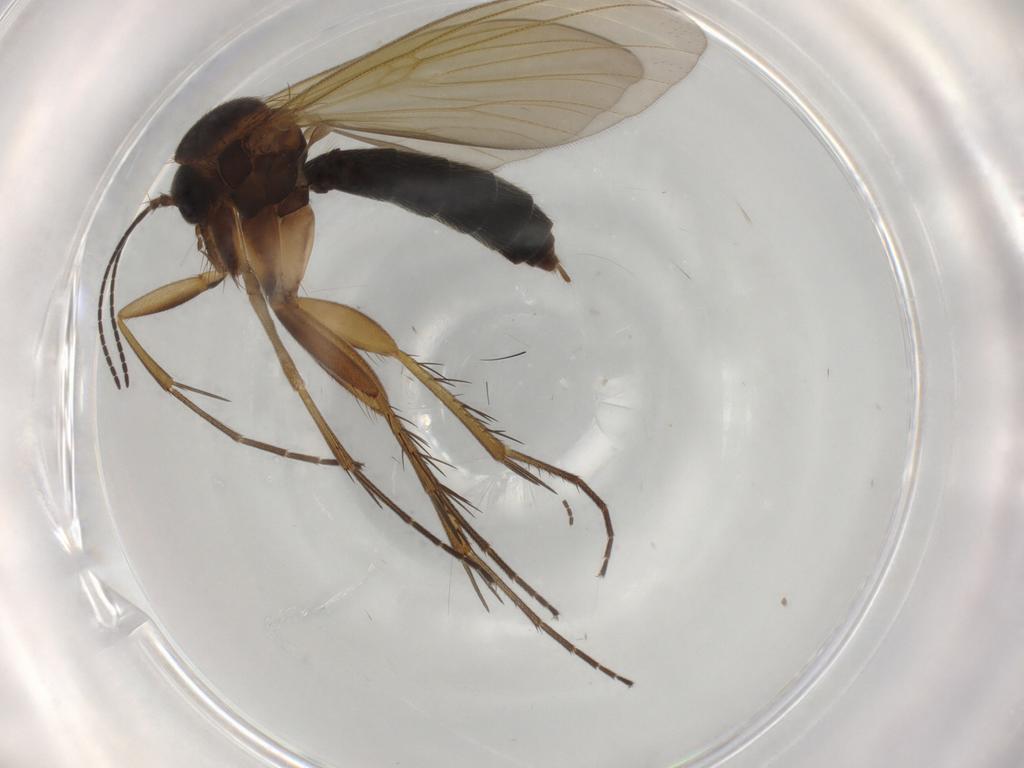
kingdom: Animalia
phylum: Arthropoda
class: Insecta
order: Diptera
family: Mycetophilidae
